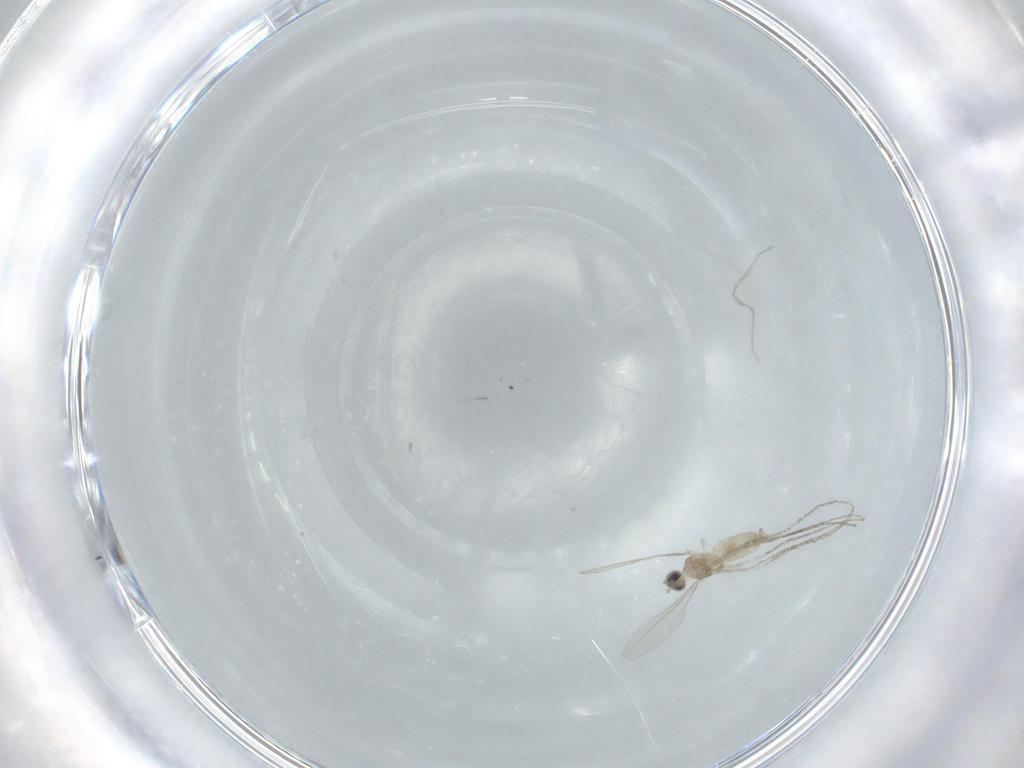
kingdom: Animalia
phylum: Arthropoda
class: Insecta
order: Diptera
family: Cecidomyiidae
